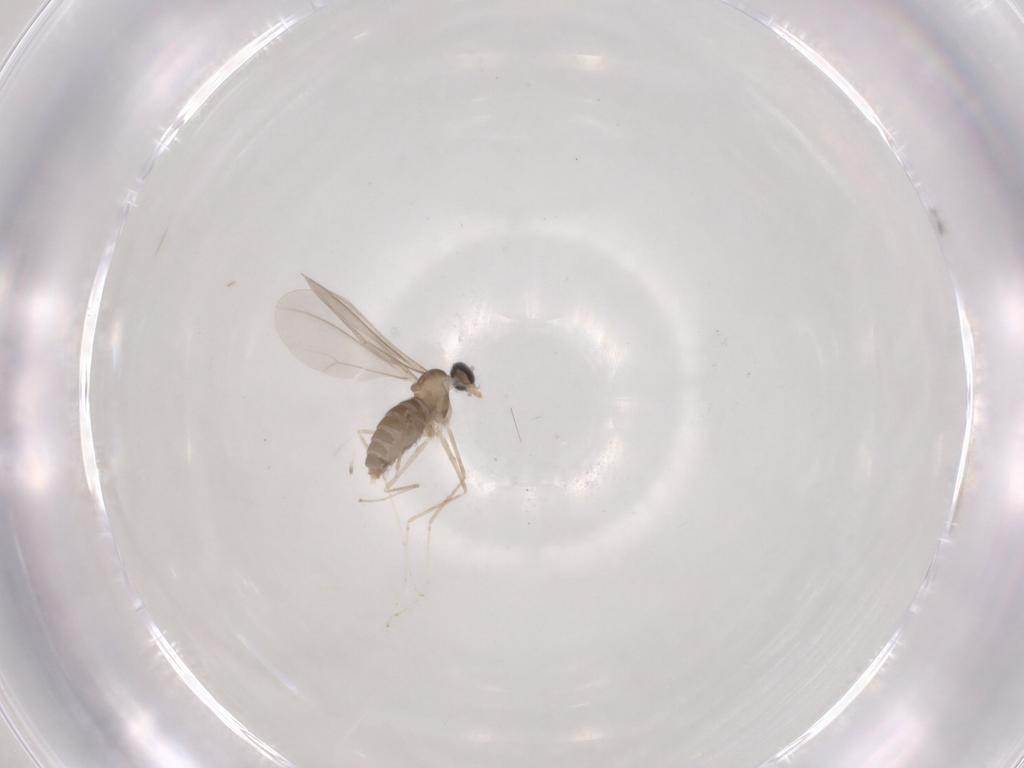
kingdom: Animalia
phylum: Arthropoda
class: Insecta
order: Diptera
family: Cecidomyiidae
